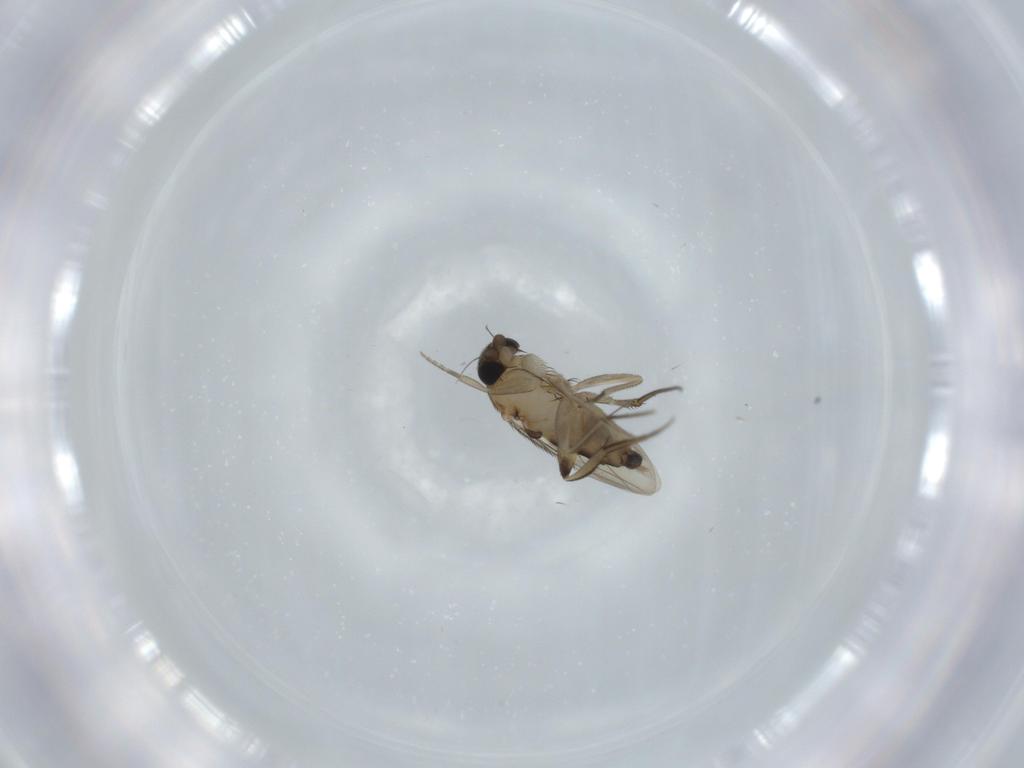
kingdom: Animalia
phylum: Arthropoda
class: Insecta
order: Diptera
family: Phoridae
